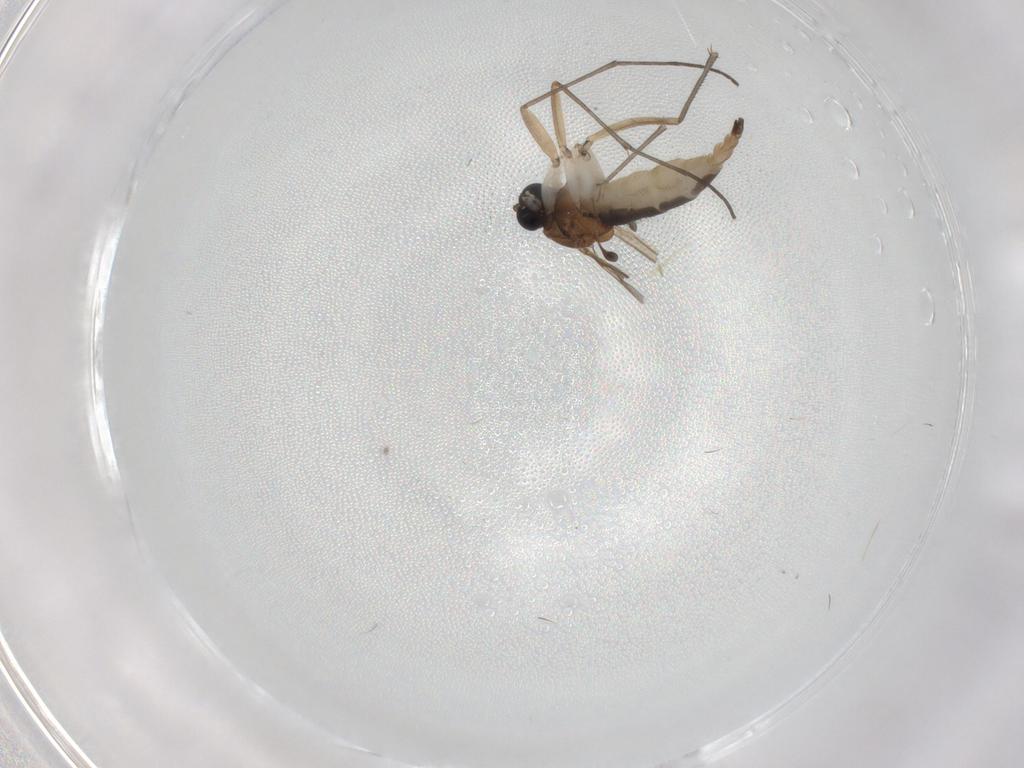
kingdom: Animalia
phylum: Arthropoda
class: Insecta
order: Diptera
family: Sciaridae
